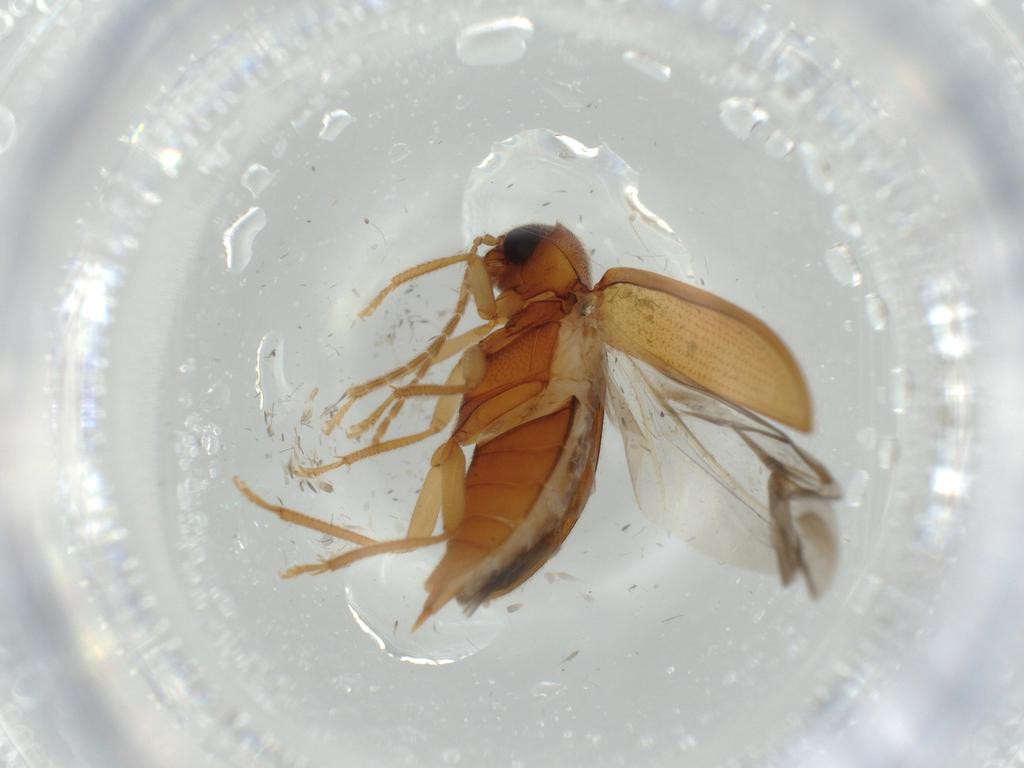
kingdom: Animalia
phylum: Arthropoda
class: Insecta
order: Coleoptera
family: Ptilodactylidae
